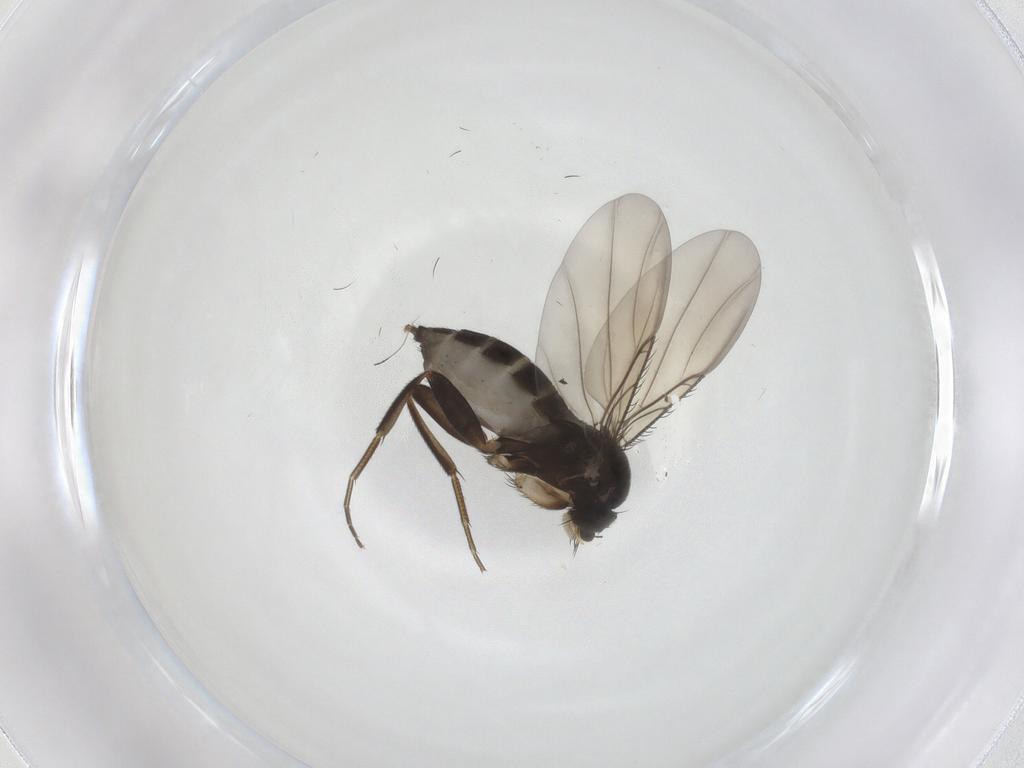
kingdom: Animalia
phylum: Arthropoda
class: Insecta
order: Diptera
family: Phoridae
